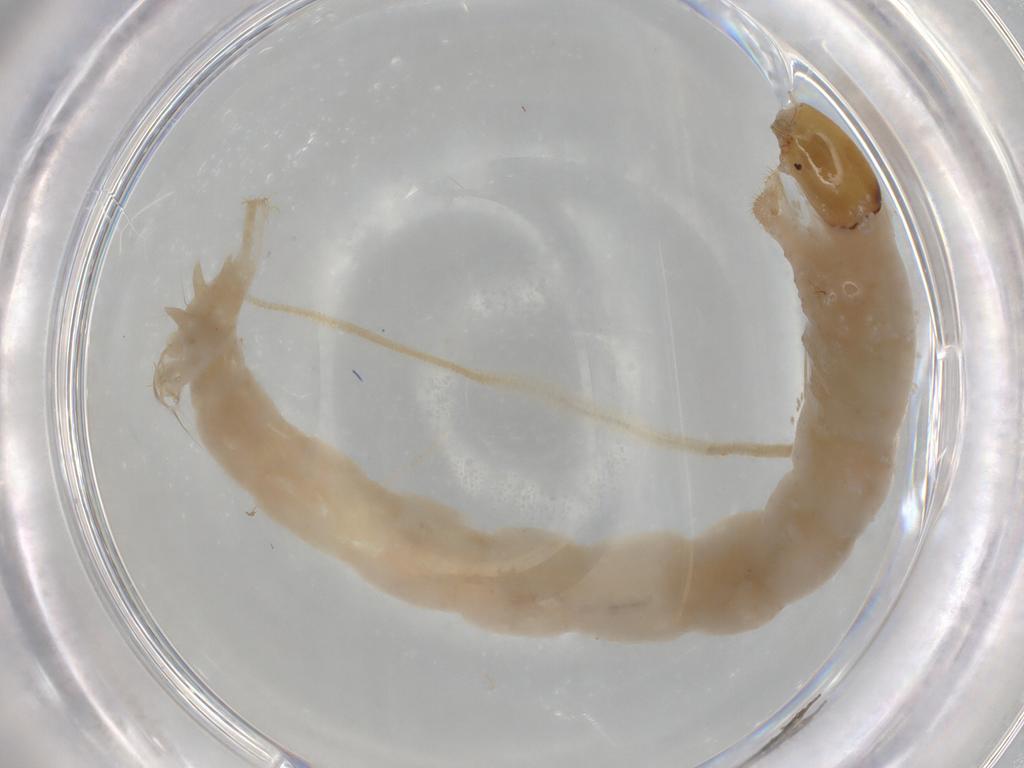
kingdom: Animalia
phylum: Arthropoda
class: Insecta
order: Diptera
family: Chironomidae
